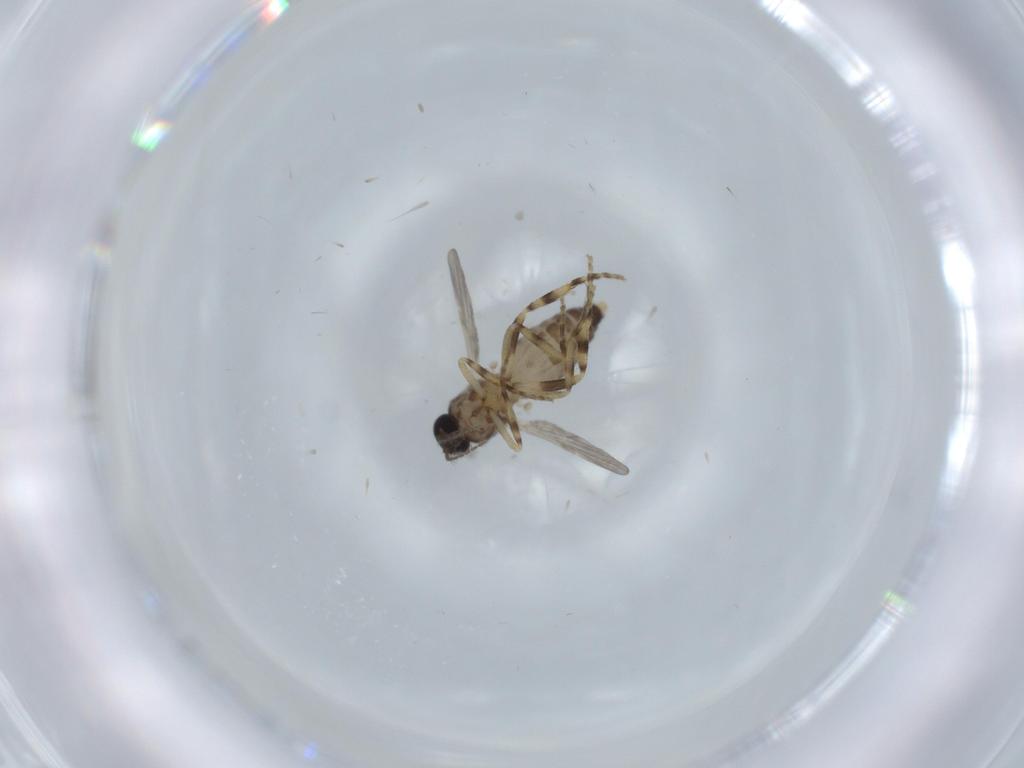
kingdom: Animalia
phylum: Arthropoda
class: Insecta
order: Diptera
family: Ceratopogonidae
